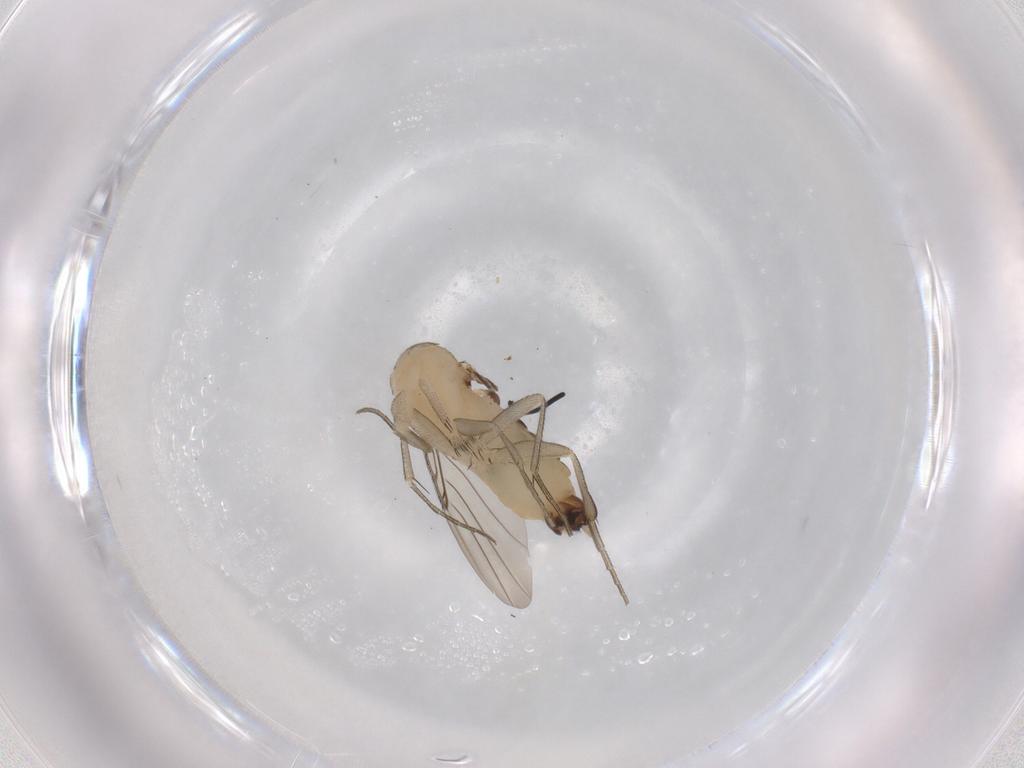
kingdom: Animalia
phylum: Arthropoda
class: Insecta
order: Diptera
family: Phoridae
